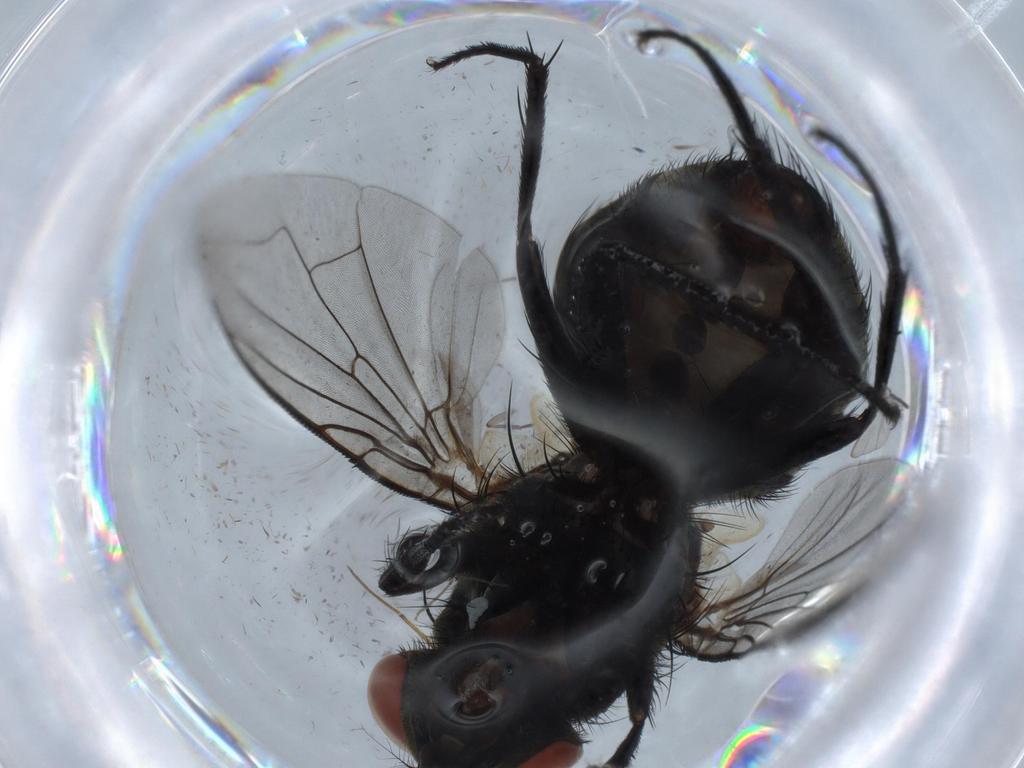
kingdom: Animalia
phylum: Arthropoda
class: Insecta
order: Diptera
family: Sarcophagidae
